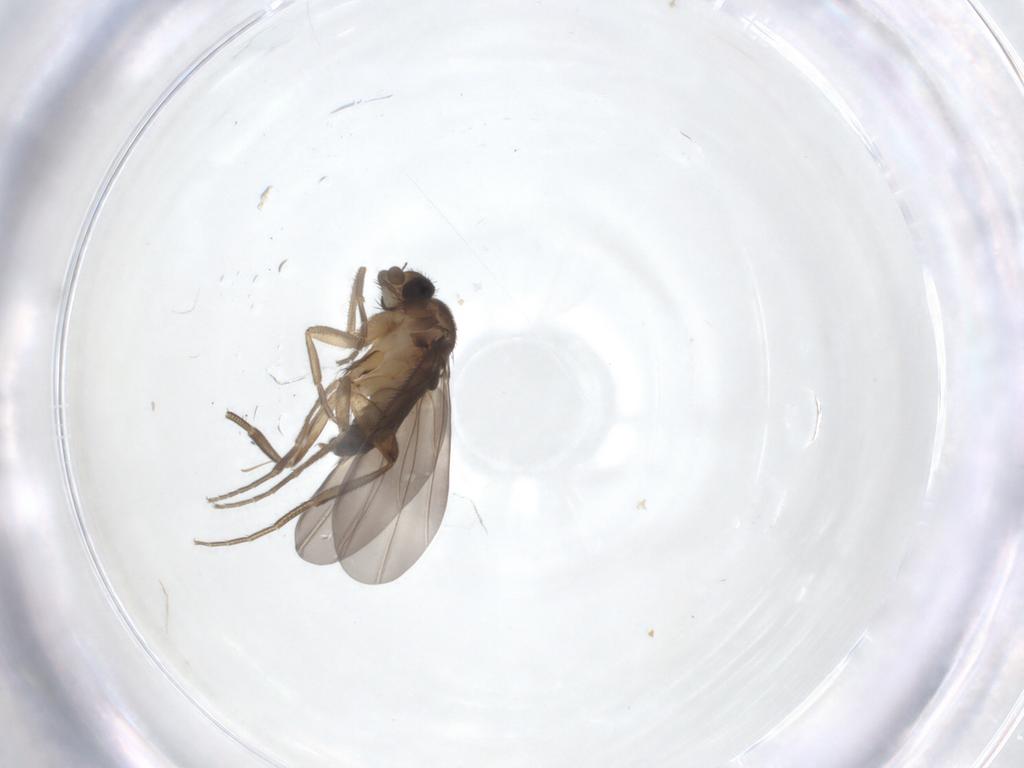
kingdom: Animalia
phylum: Arthropoda
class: Insecta
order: Diptera
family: Phoridae
